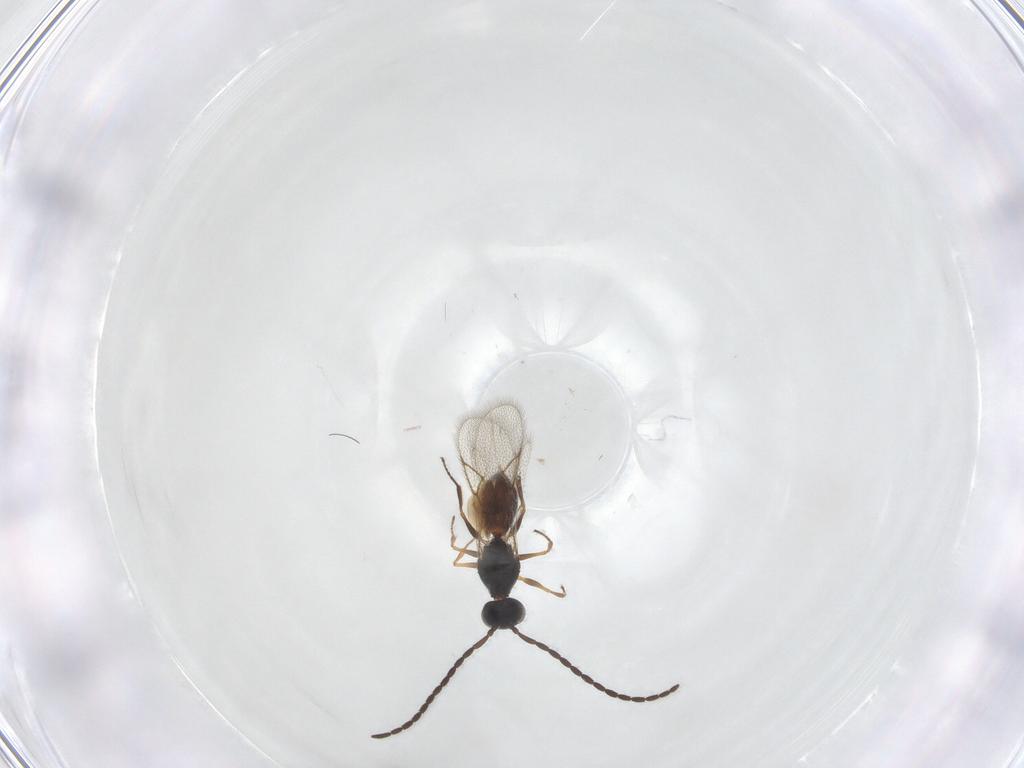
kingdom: Animalia
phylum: Arthropoda
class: Insecta
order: Hymenoptera
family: Figitidae
